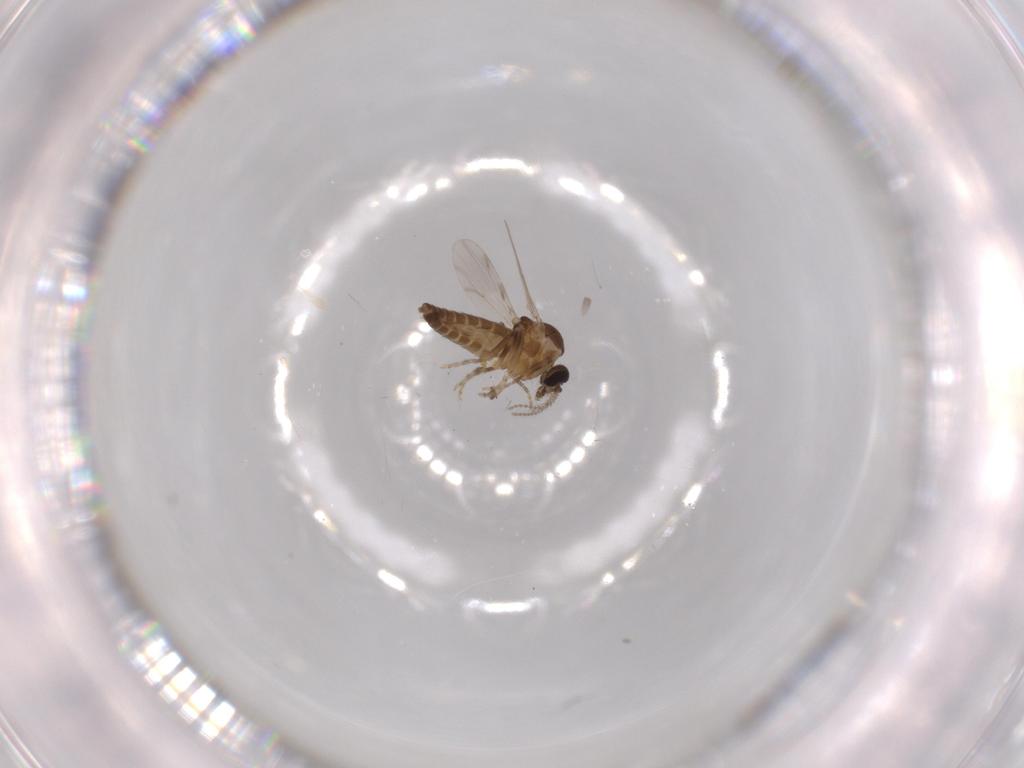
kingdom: Animalia
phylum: Arthropoda
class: Insecta
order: Diptera
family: Ceratopogonidae
